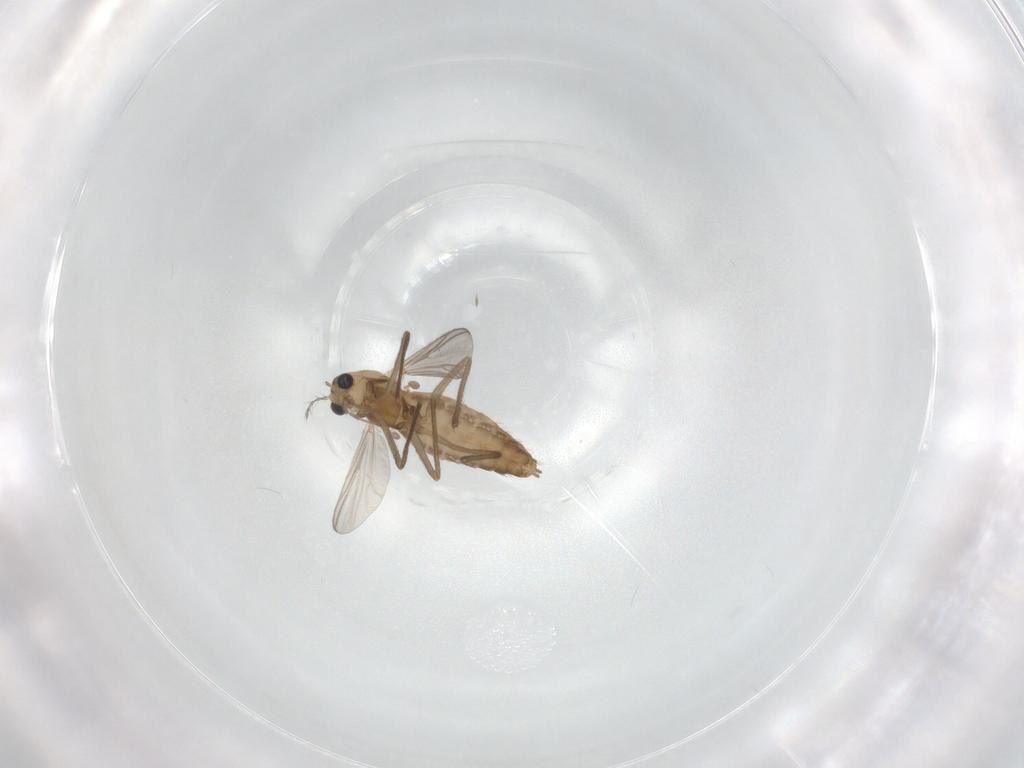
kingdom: Animalia
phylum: Arthropoda
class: Insecta
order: Diptera
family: Chironomidae
